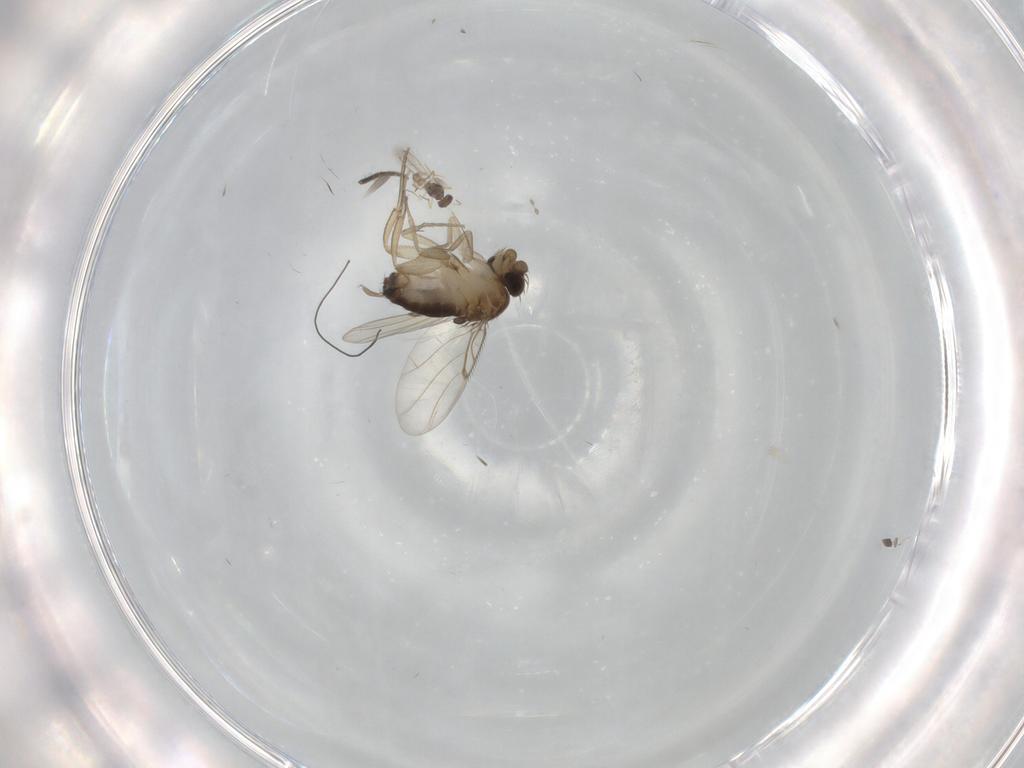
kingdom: Animalia
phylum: Arthropoda
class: Insecta
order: Diptera
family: Phoridae
